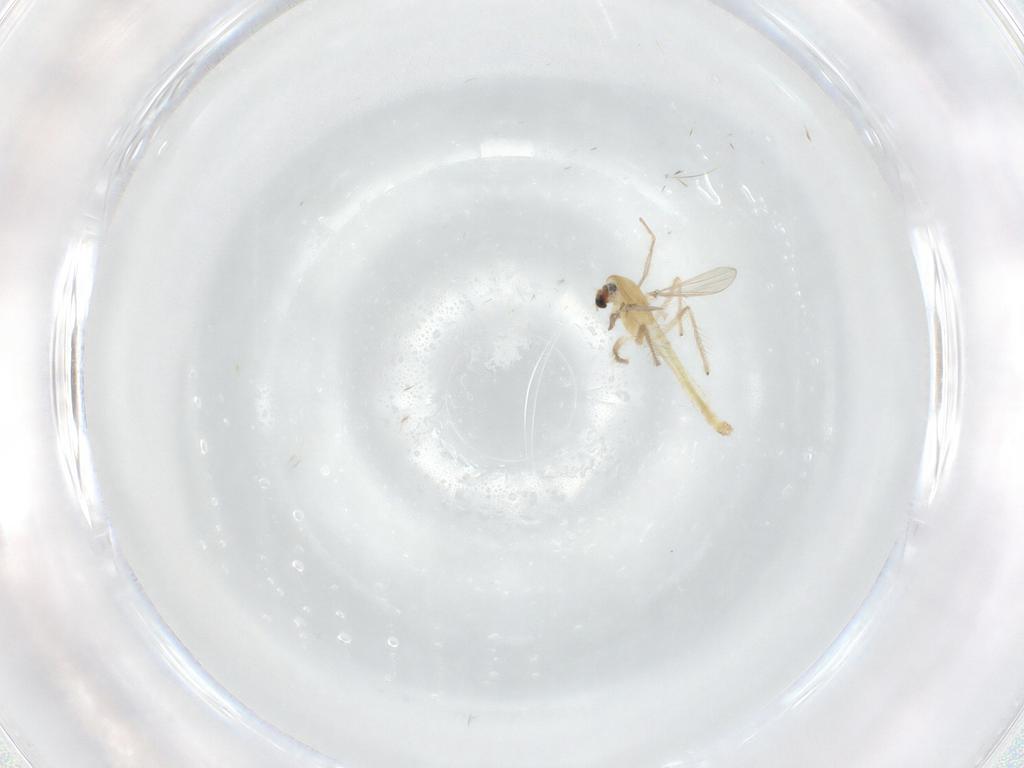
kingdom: Animalia
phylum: Arthropoda
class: Insecta
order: Diptera
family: Chironomidae
